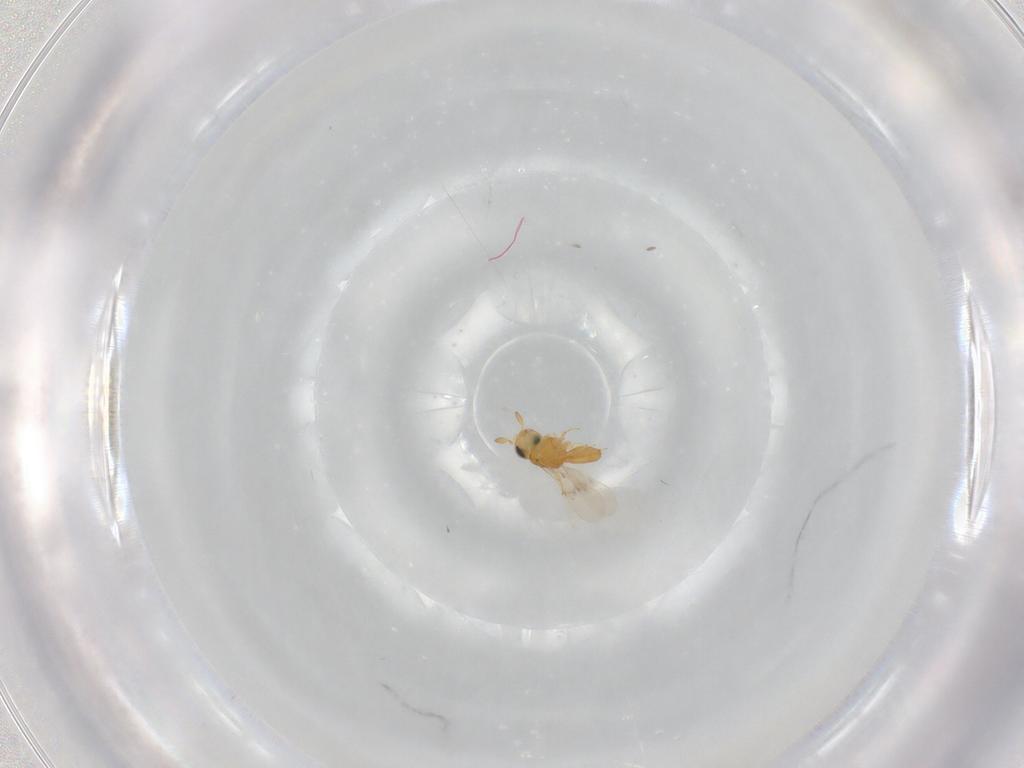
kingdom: Animalia
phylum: Arthropoda
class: Insecta
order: Hymenoptera
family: Scelionidae
